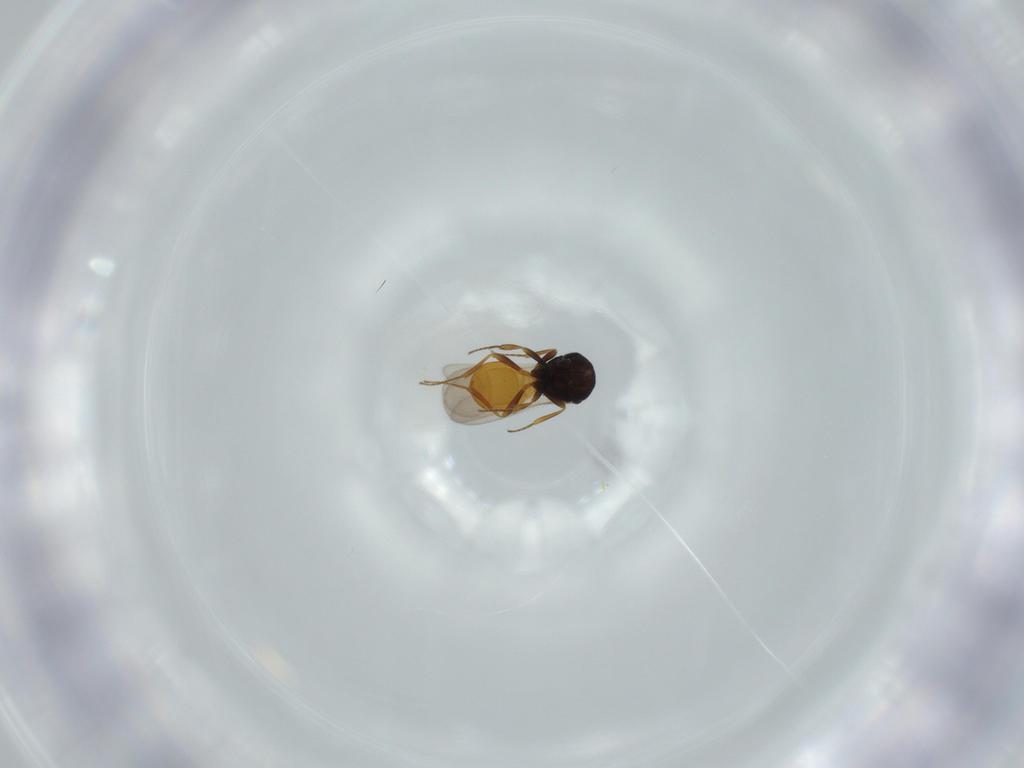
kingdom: Animalia
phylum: Arthropoda
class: Insecta
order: Hymenoptera
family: Scelionidae
